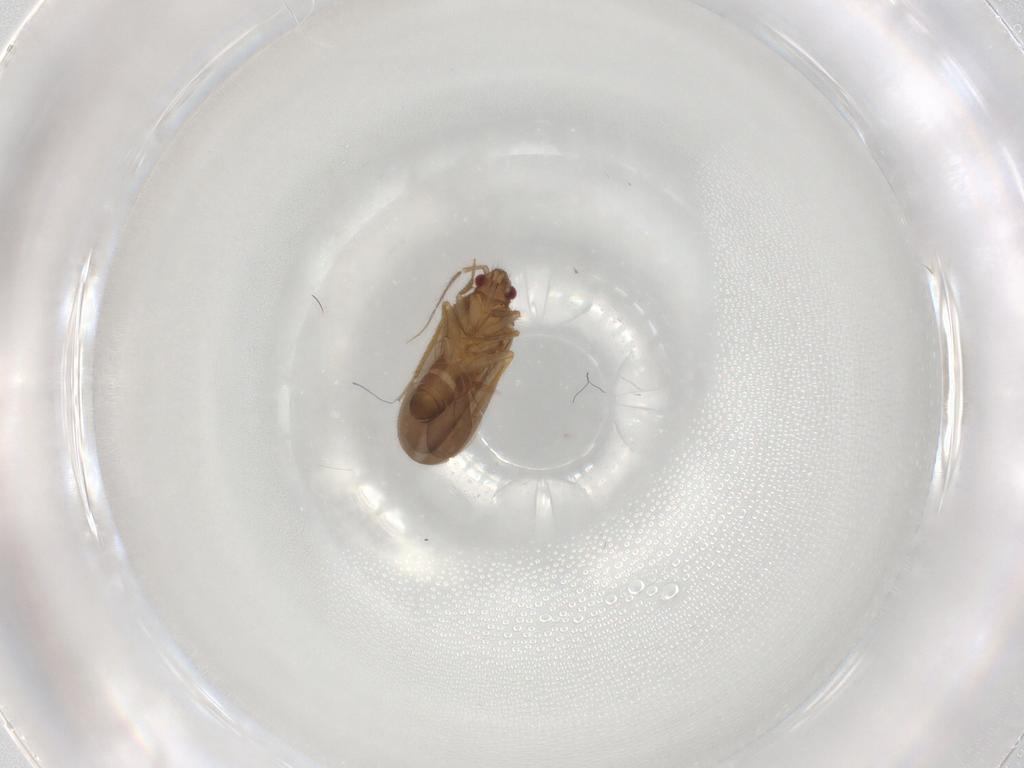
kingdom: Animalia
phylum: Arthropoda
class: Insecta
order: Hemiptera
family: Ceratocombidae
